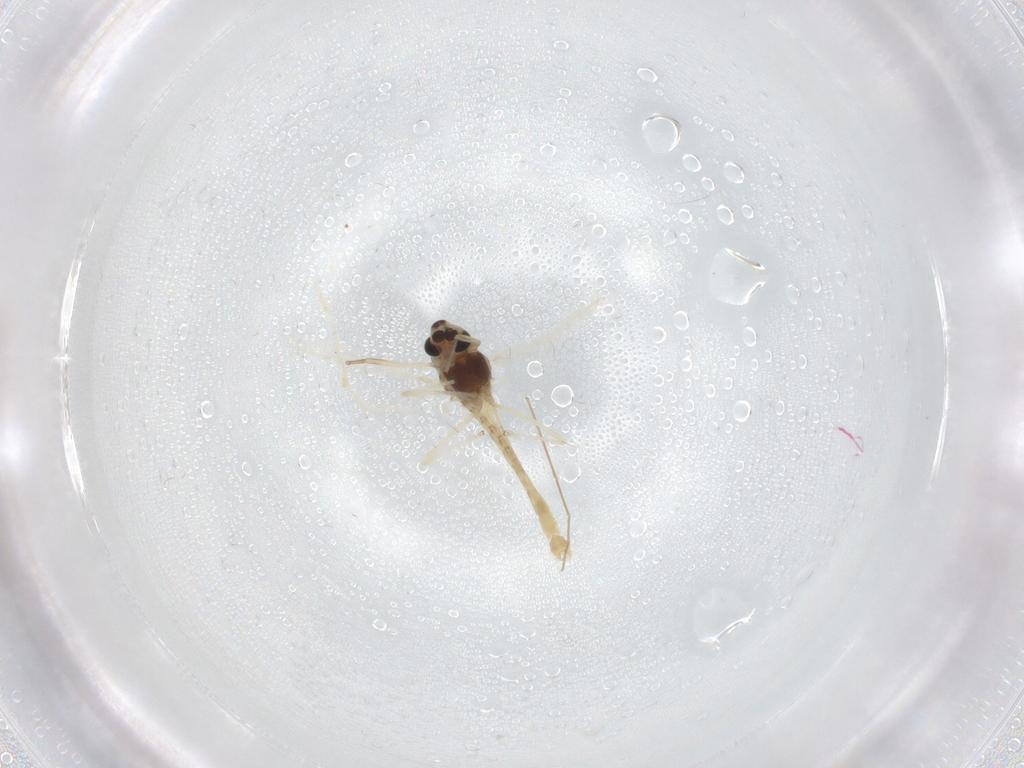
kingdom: Animalia
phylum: Arthropoda
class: Insecta
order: Diptera
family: Chironomidae
